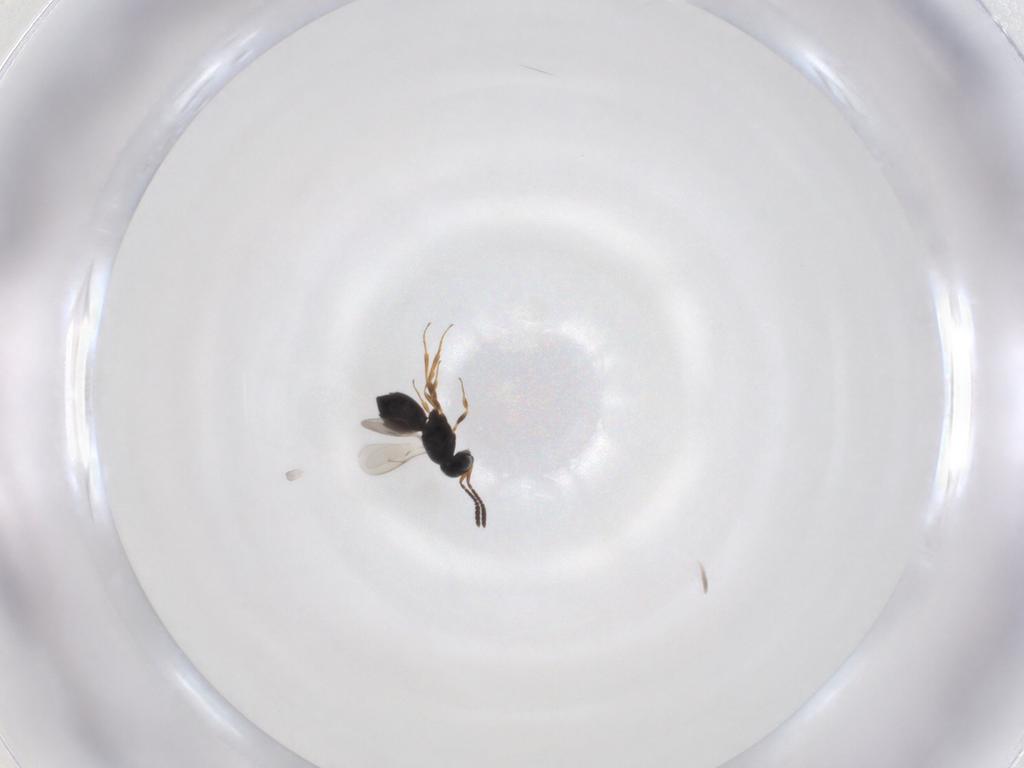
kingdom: Animalia
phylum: Arthropoda
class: Insecta
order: Hymenoptera
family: Scelionidae
